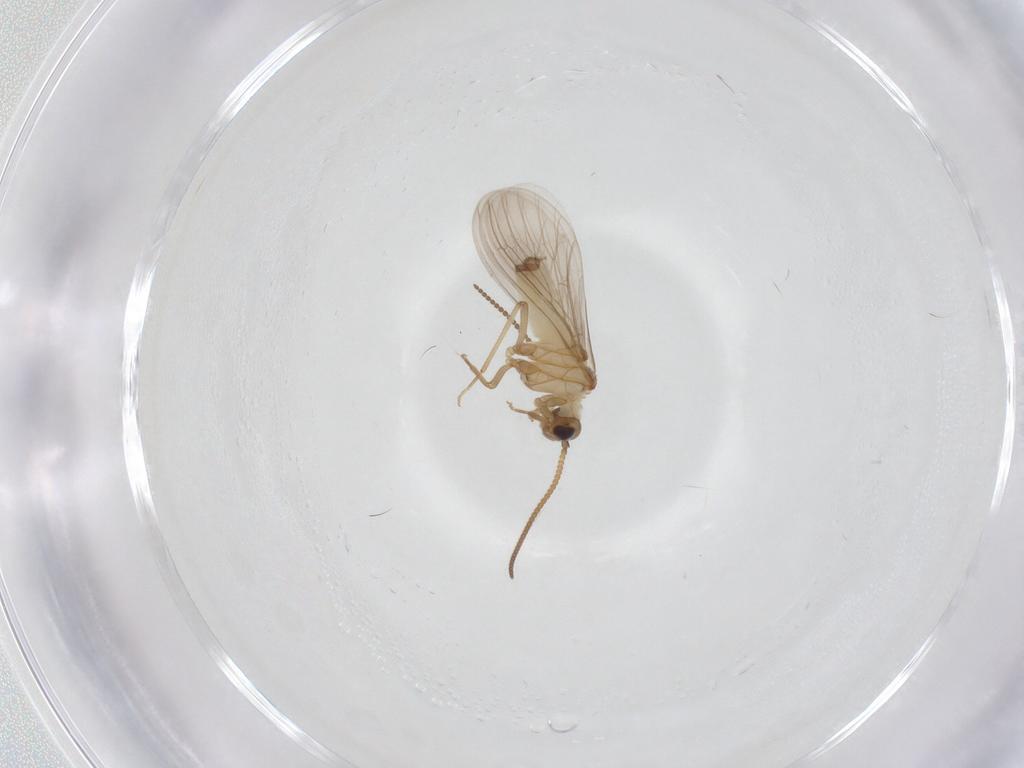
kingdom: Animalia
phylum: Arthropoda
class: Insecta
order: Neuroptera
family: Coniopterygidae
